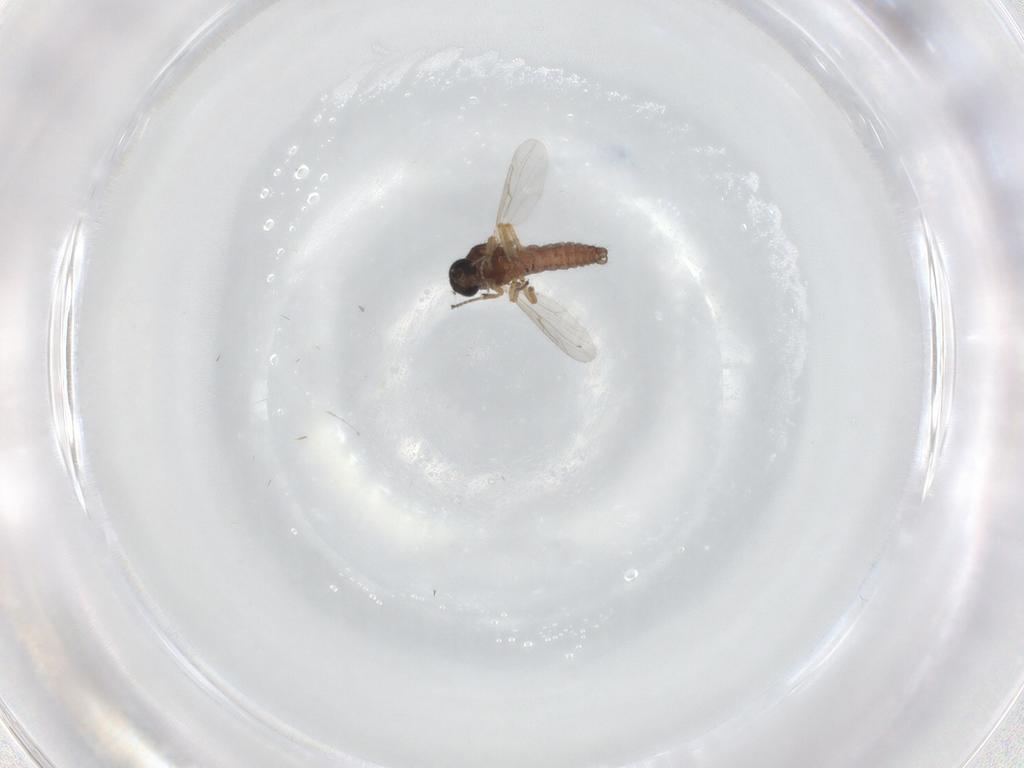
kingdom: Animalia
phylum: Arthropoda
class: Insecta
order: Diptera
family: Ceratopogonidae
